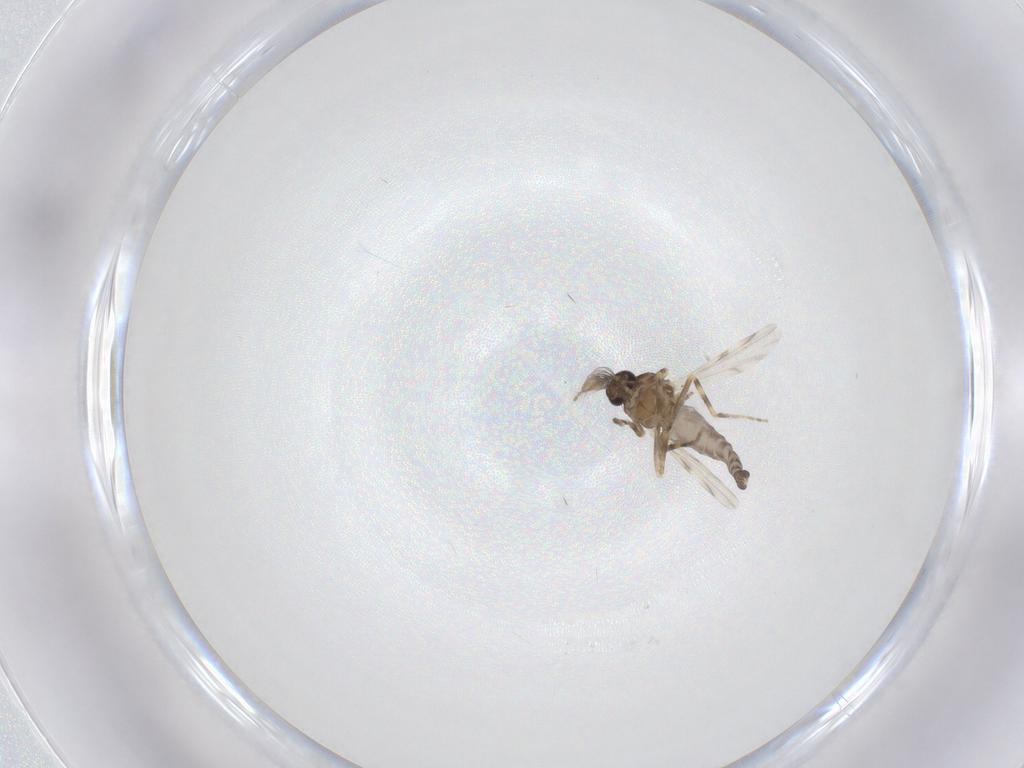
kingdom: Animalia
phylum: Arthropoda
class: Insecta
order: Diptera
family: Ceratopogonidae
